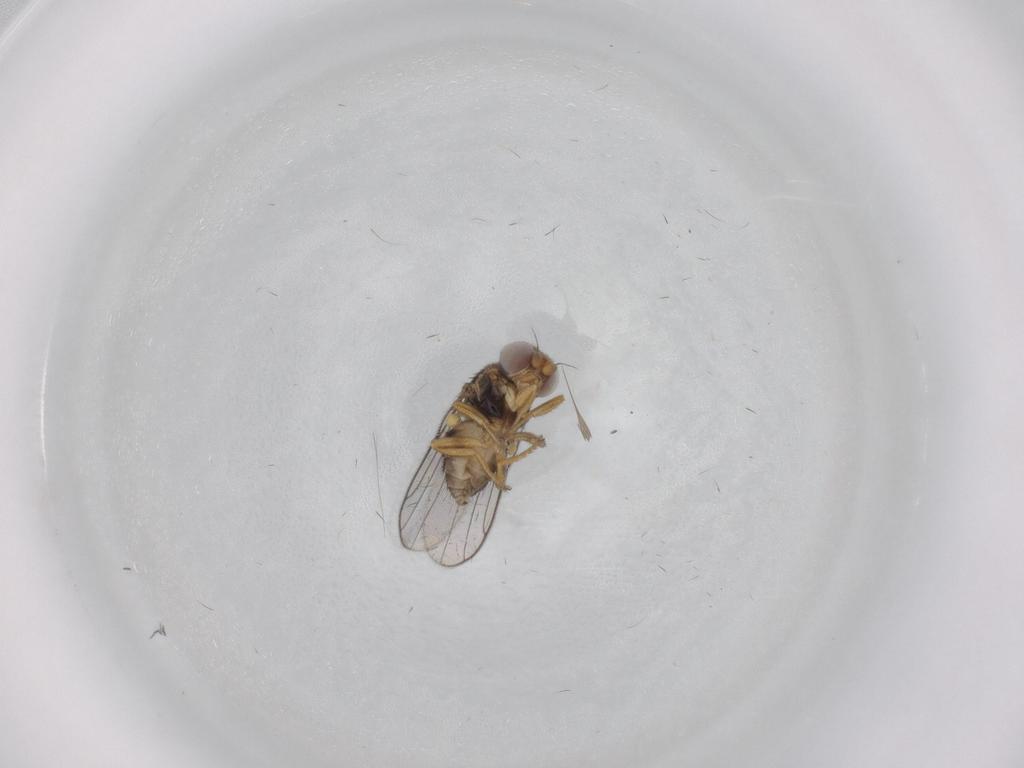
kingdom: Animalia
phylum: Arthropoda
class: Insecta
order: Diptera
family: Chloropidae
